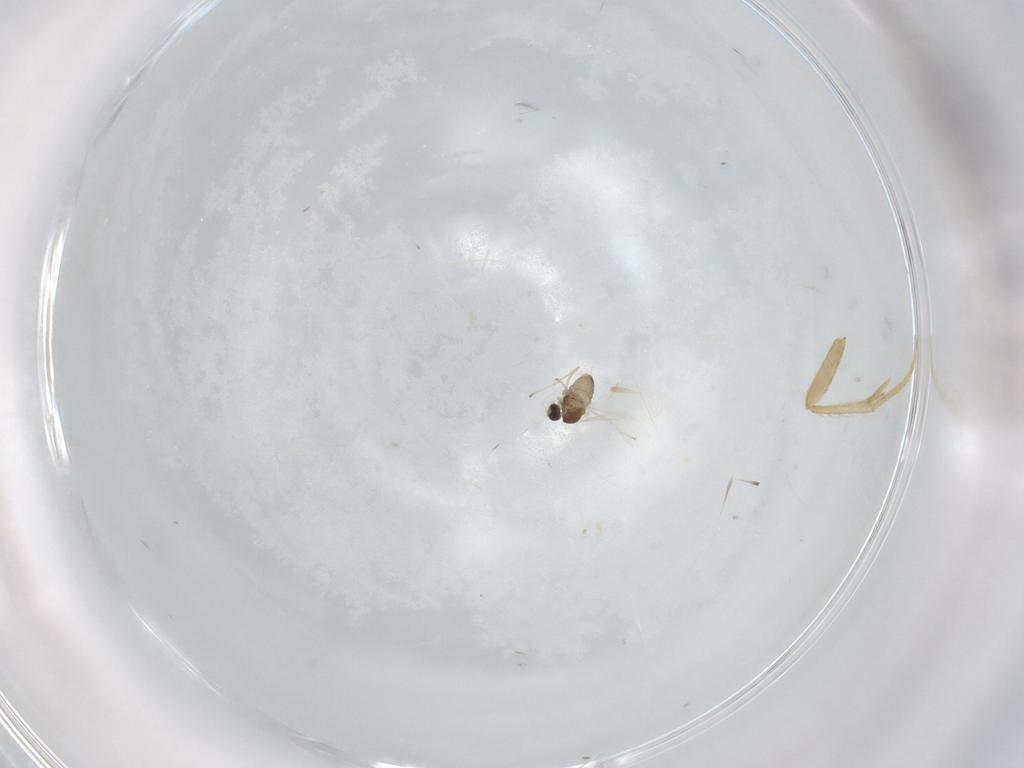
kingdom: Animalia
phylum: Arthropoda
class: Insecta
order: Diptera
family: Cecidomyiidae
